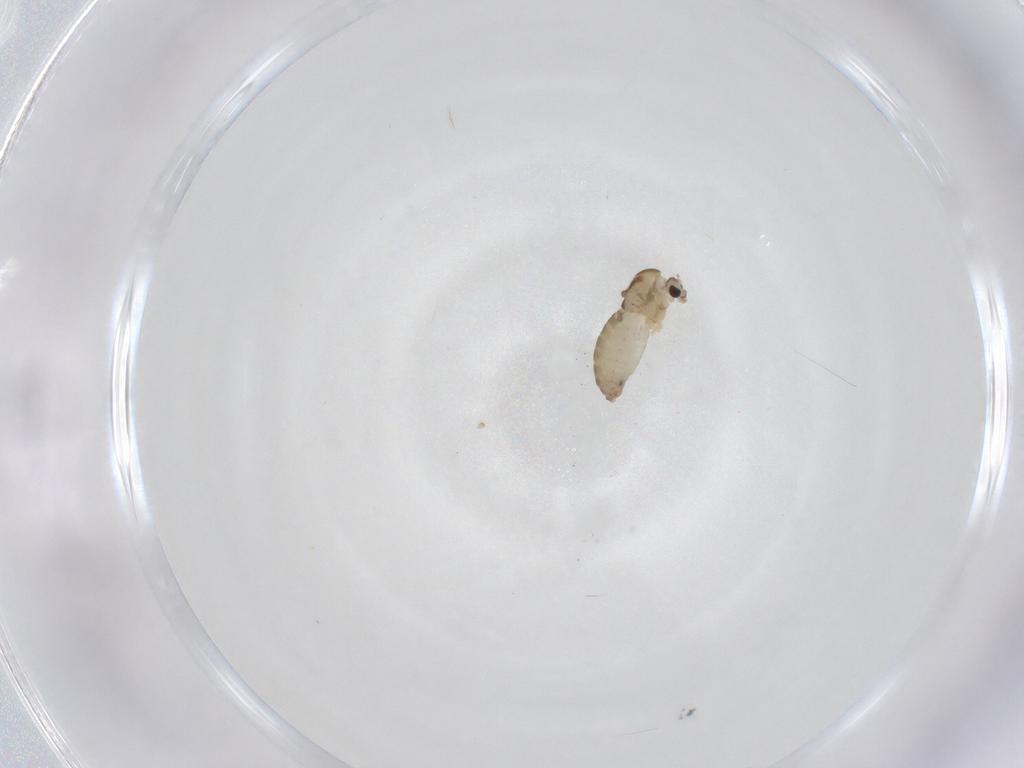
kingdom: Animalia
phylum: Arthropoda
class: Insecta
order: Diptera
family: Chironomidae
